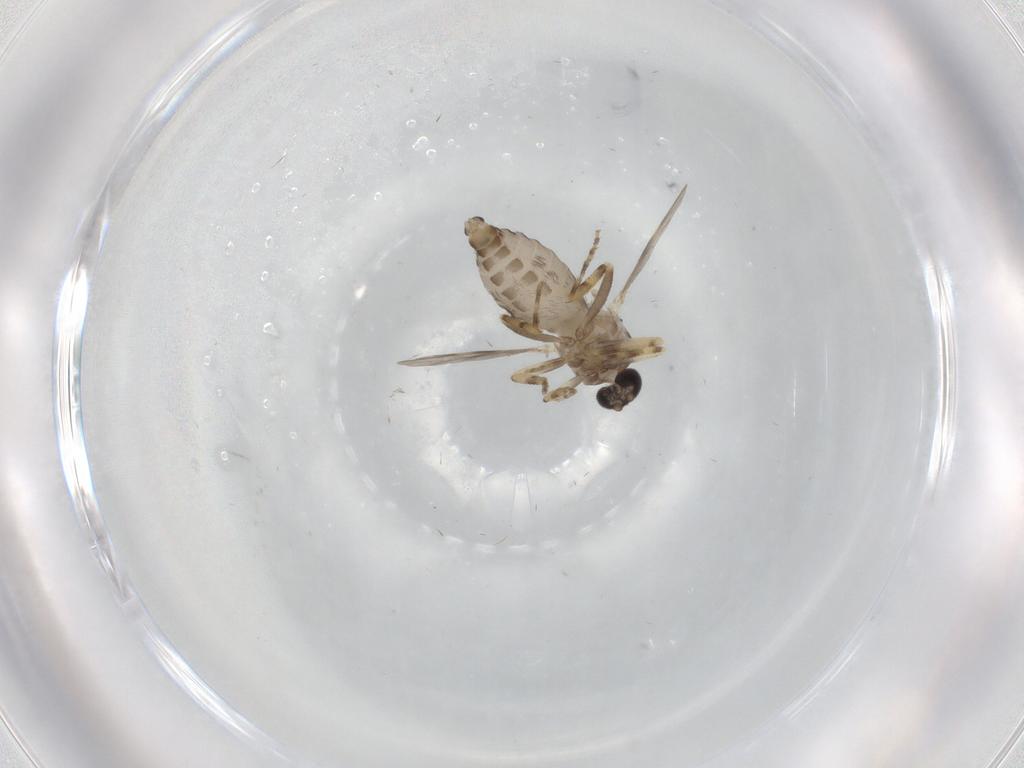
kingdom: Animalia
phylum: Arthropoda
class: Insecta
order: Diptera
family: Ceratopogonidae
